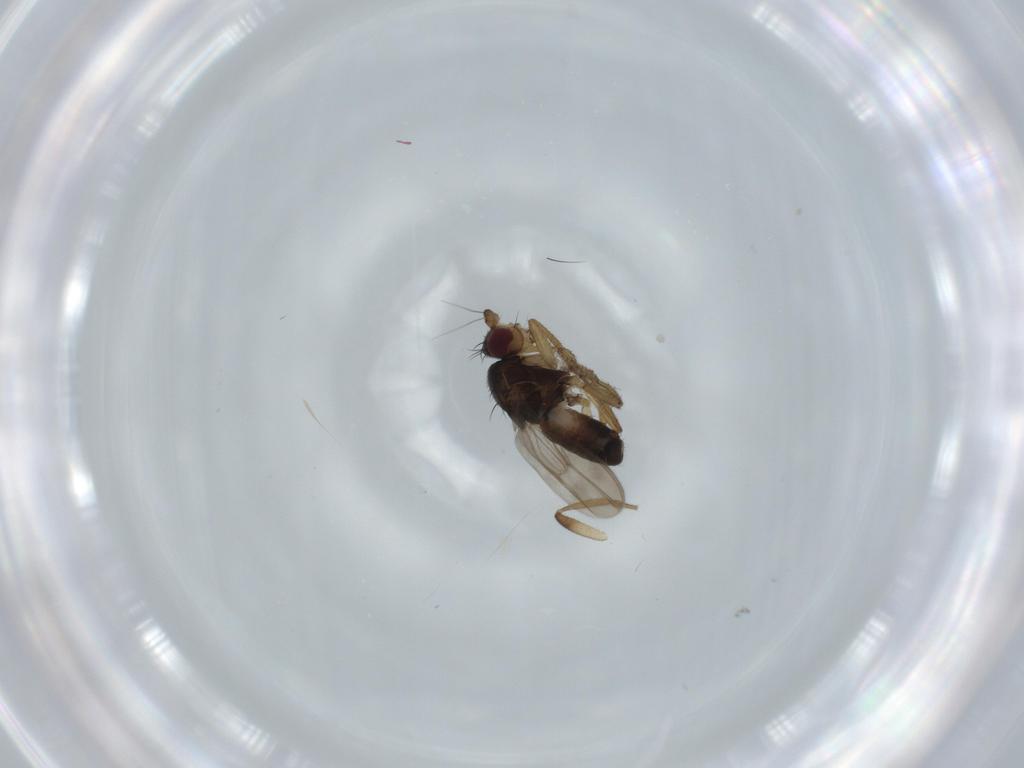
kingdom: Animalia
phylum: Arthropoda
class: Insecta
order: Diptera
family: Sphaeroceridae
